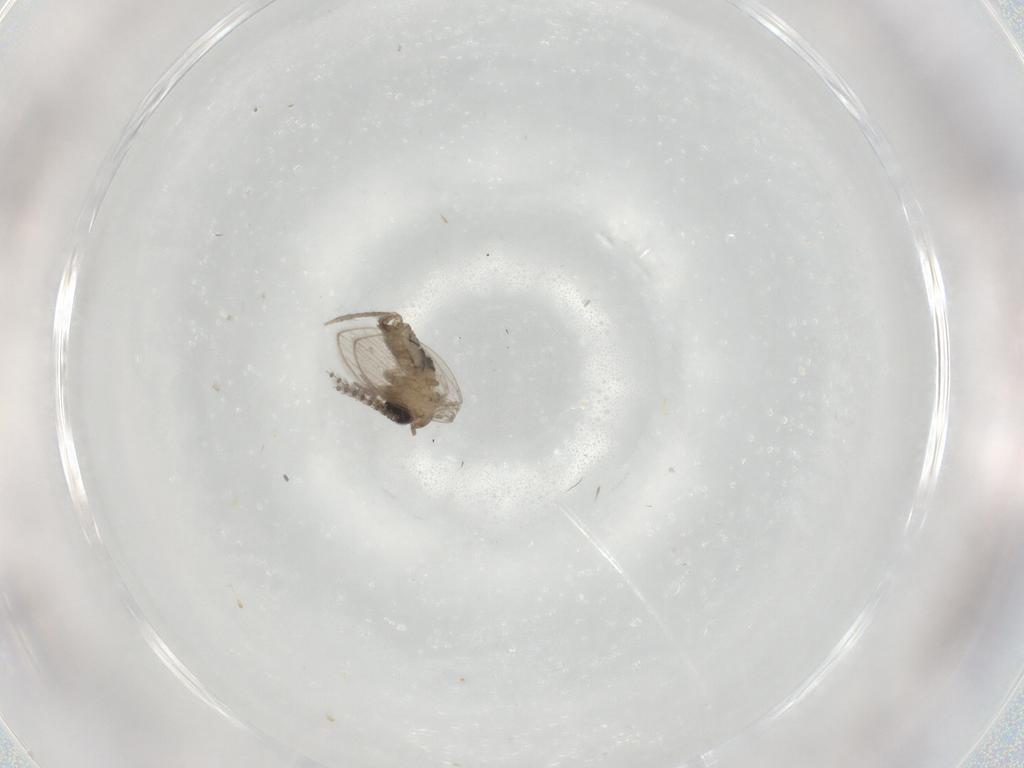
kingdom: Animalia
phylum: Arthropoda
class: Insecta
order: Diptera
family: Psychodidae
